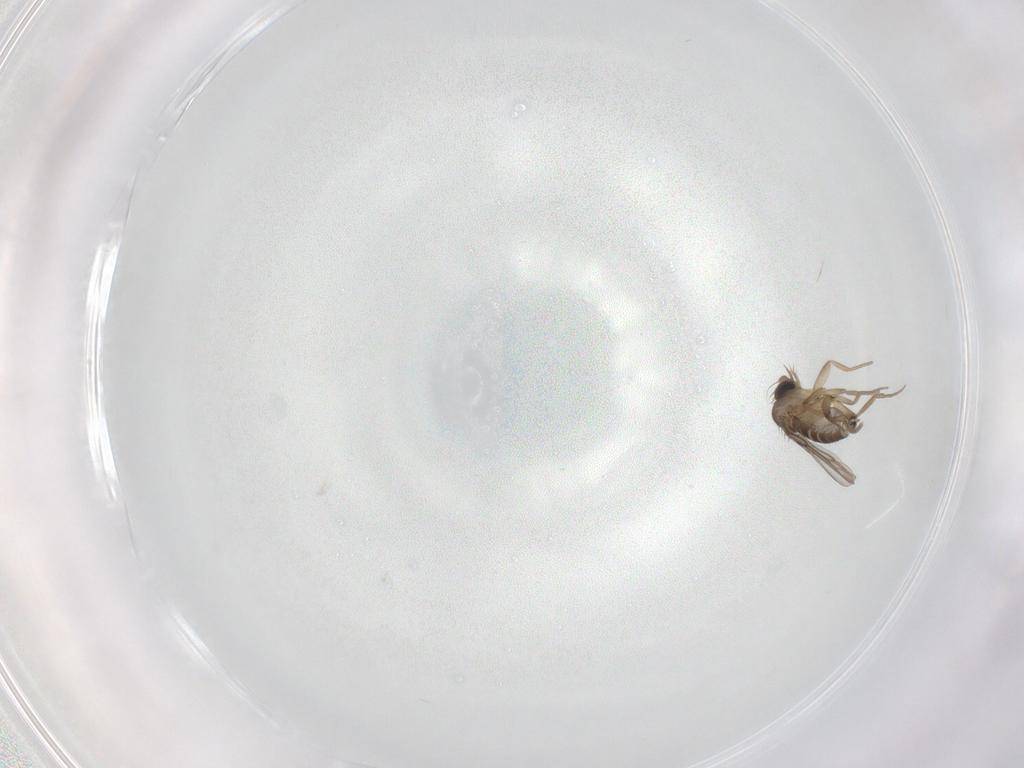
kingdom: Animalia
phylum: Arthropoda
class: Insecta
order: Diptera
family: Phoridae
